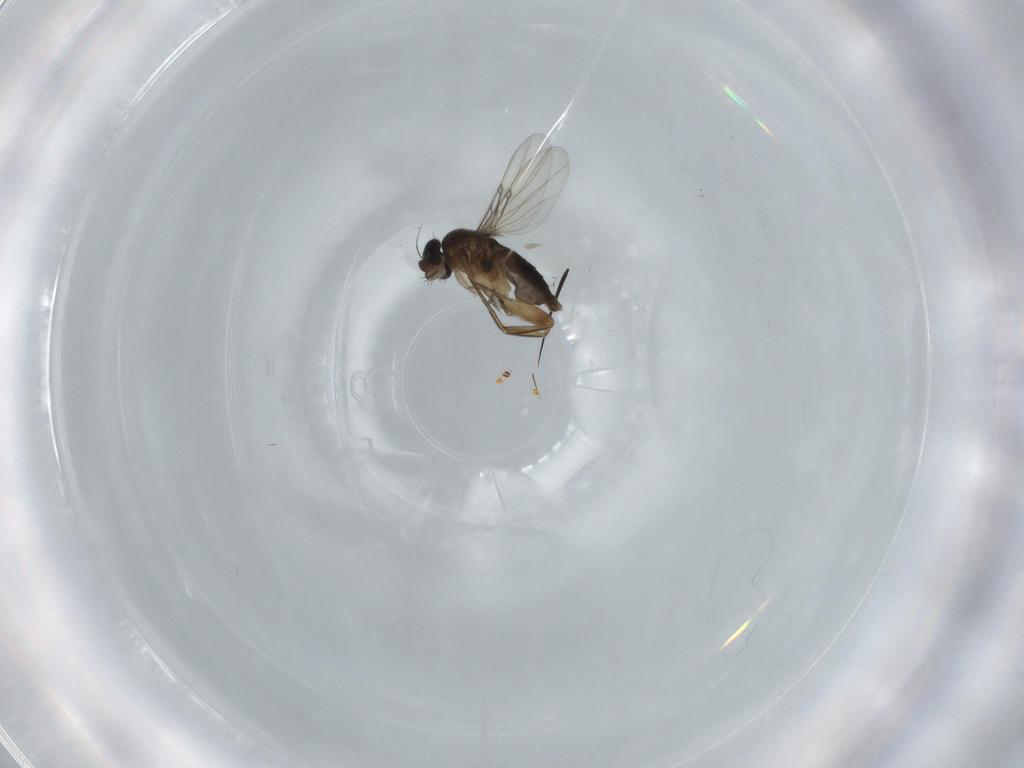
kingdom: Animalia
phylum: Arthropoda
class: Insecta
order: Diptera
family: Phoridae
